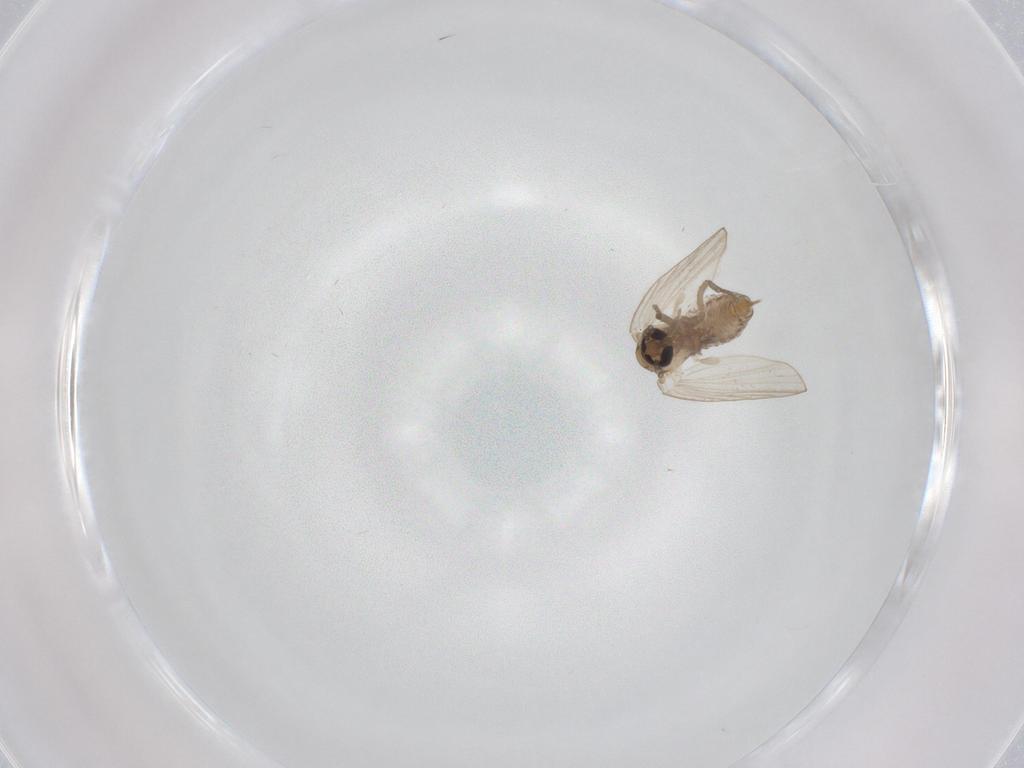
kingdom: Animalia
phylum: Arthropoda
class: Insecta
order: Diptera
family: Psychodidae
